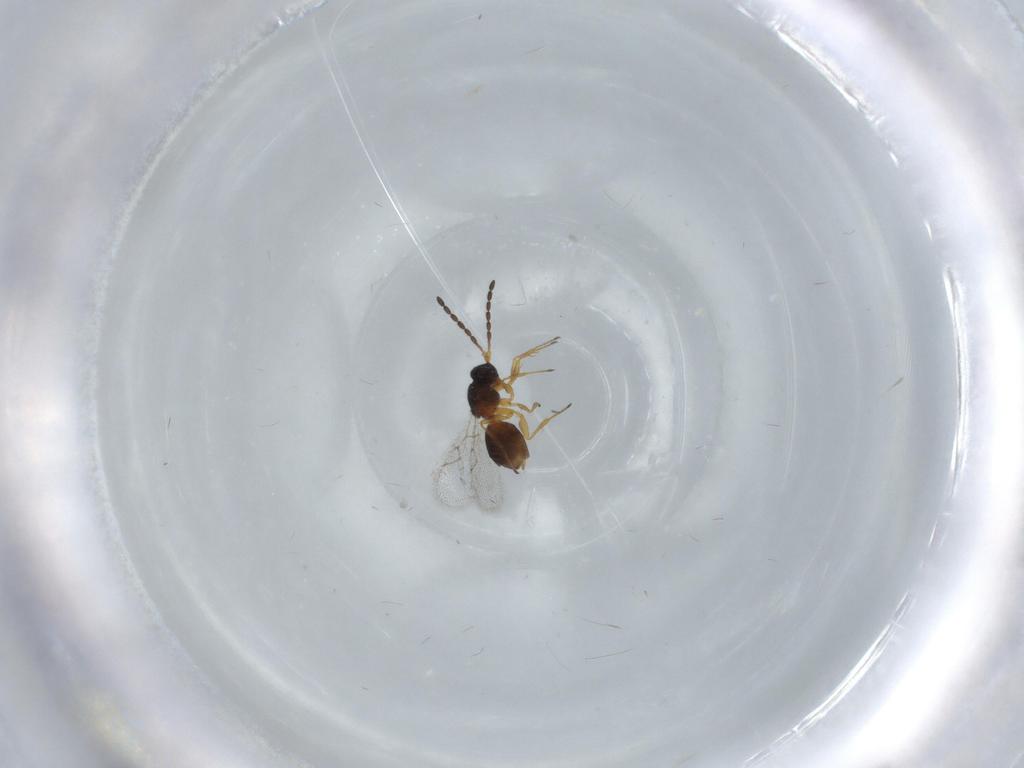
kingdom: Animalia
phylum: Arthropoda
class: Insecta
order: Hymenoptera
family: Figitidae
